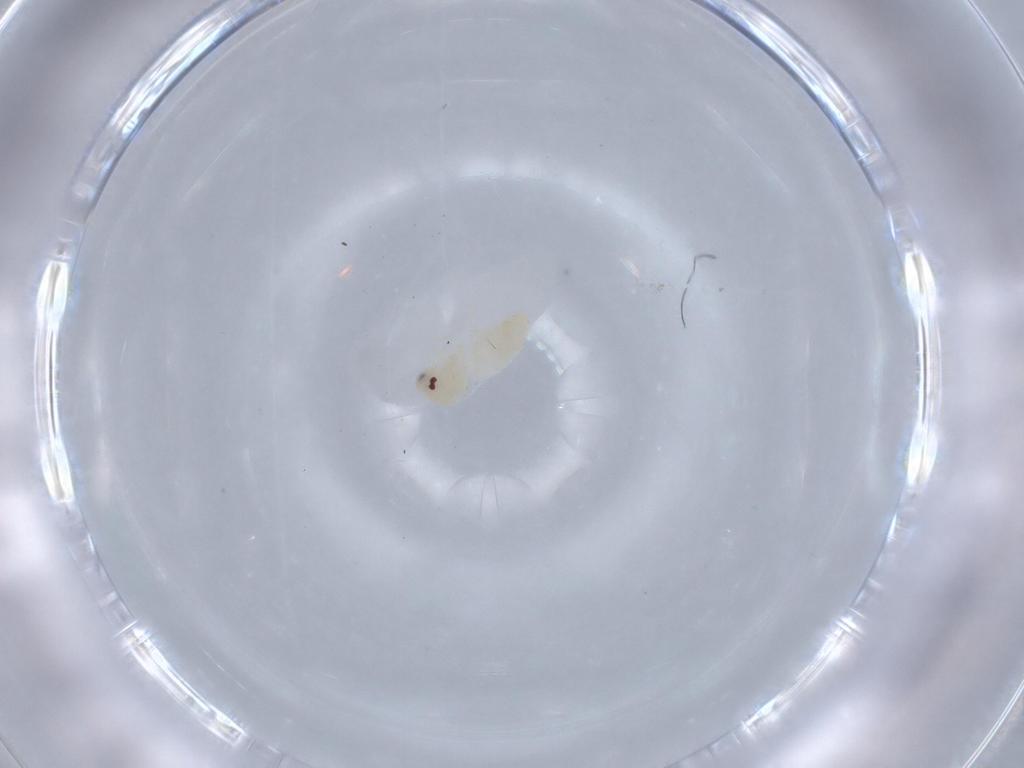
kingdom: Animalia
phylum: Arthropoda
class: Insecta
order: Hemiptera
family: Aleyrodidae
